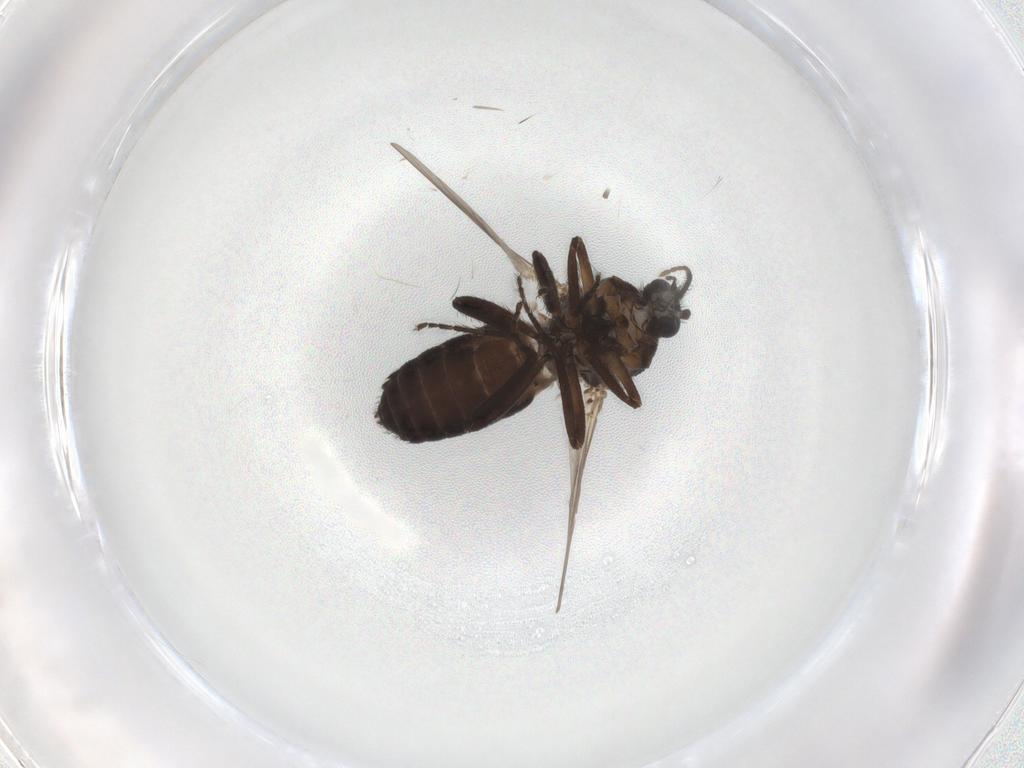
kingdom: Animalia
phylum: Arthropoda
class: Insecta
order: Diptera
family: Ceratopogonidae
